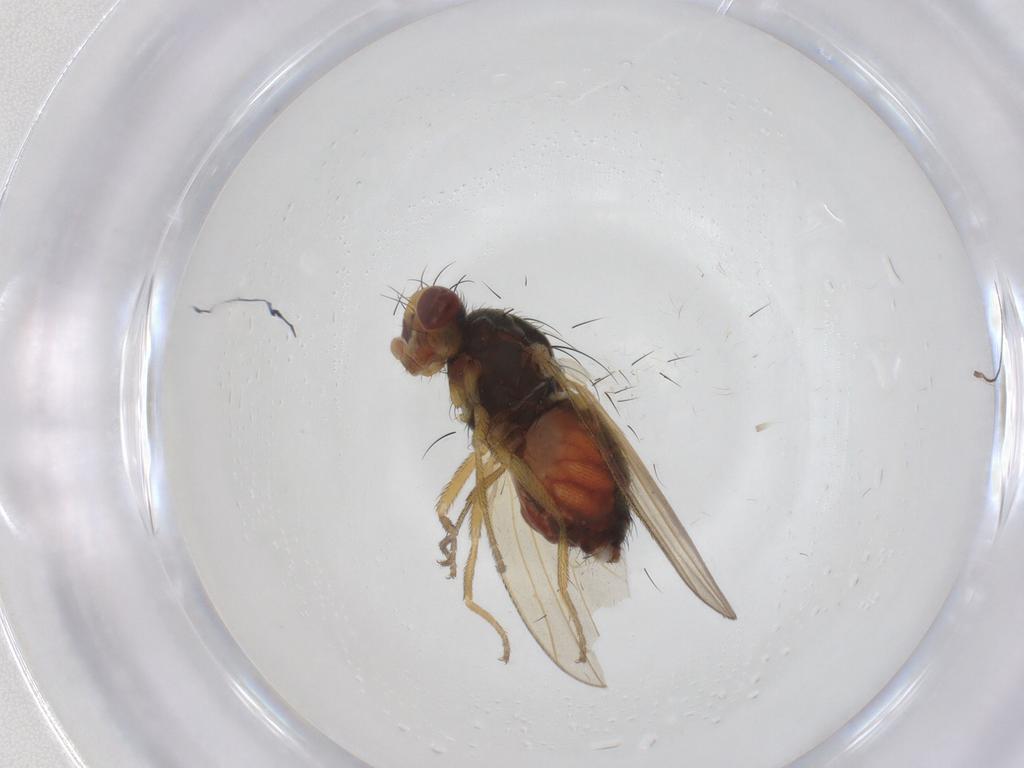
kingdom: Animalia
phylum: Arthropoda
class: Insecta
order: Diptera
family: Heleomyzidae
